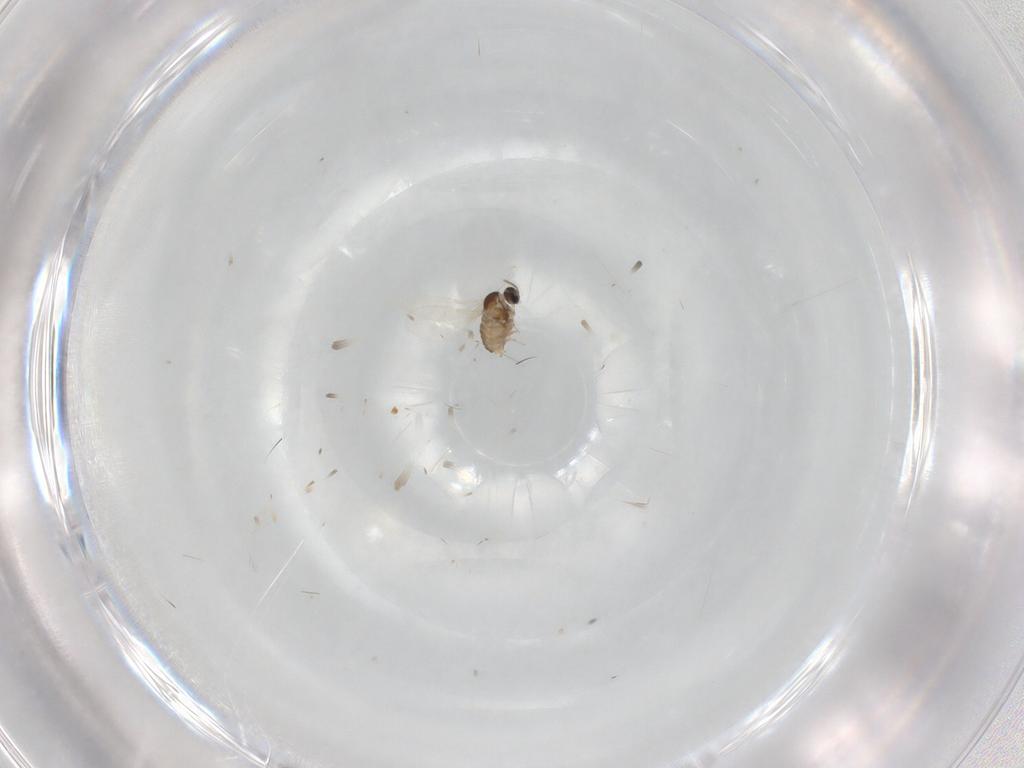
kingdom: Animalia
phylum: Arthropoda
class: Insecta
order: Diptera
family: Cecidomyiidae
